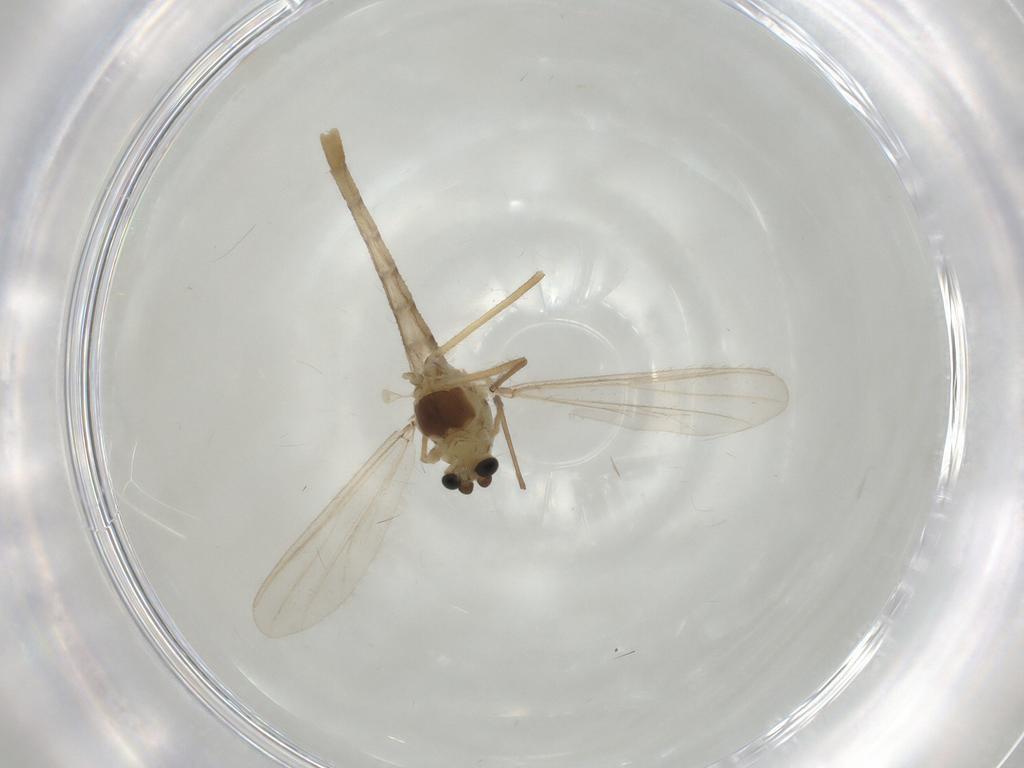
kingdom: Animalia
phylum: Arthropoda
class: Insecta
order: Diptera
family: Chironomidae
